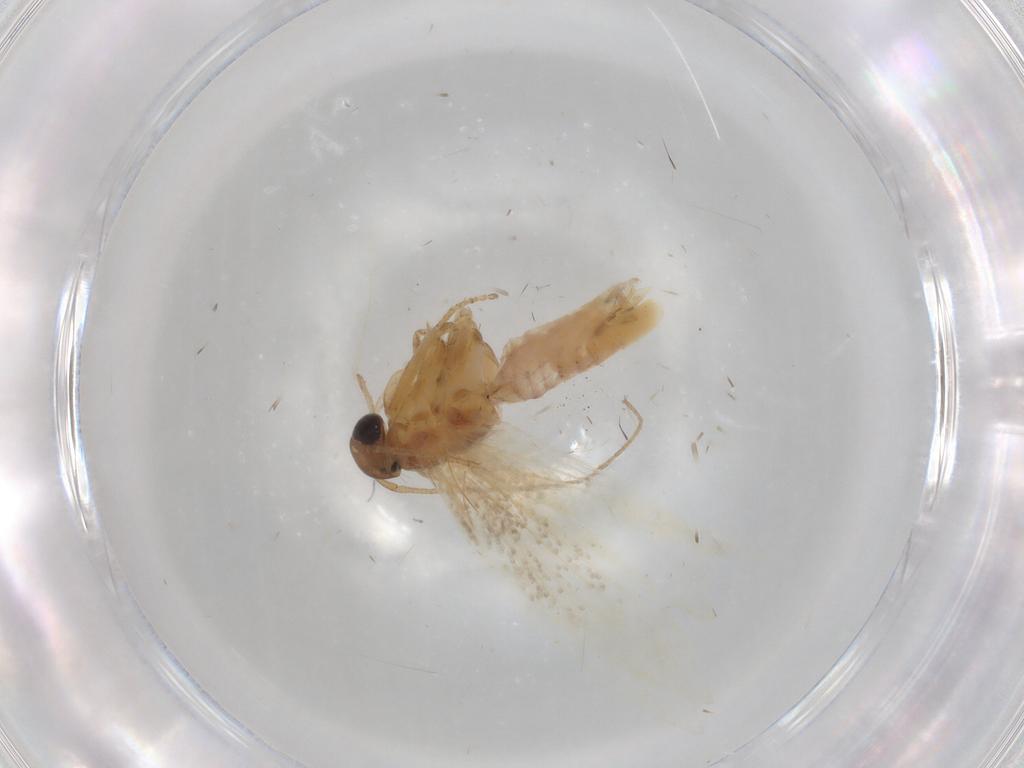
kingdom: Animalia
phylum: Arthropoda
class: Insecta
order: Lepidoptera
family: Gelechiidae
